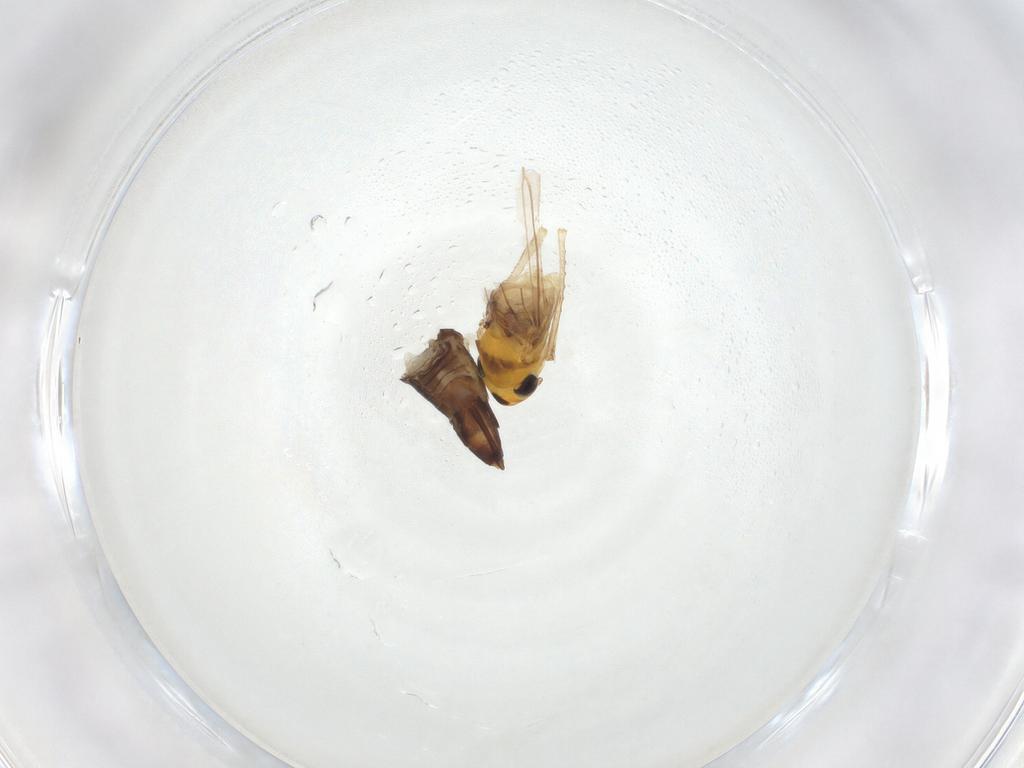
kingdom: Animalia
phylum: Arthropoda
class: Insecta
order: Hemiptera
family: Cicadellidae
